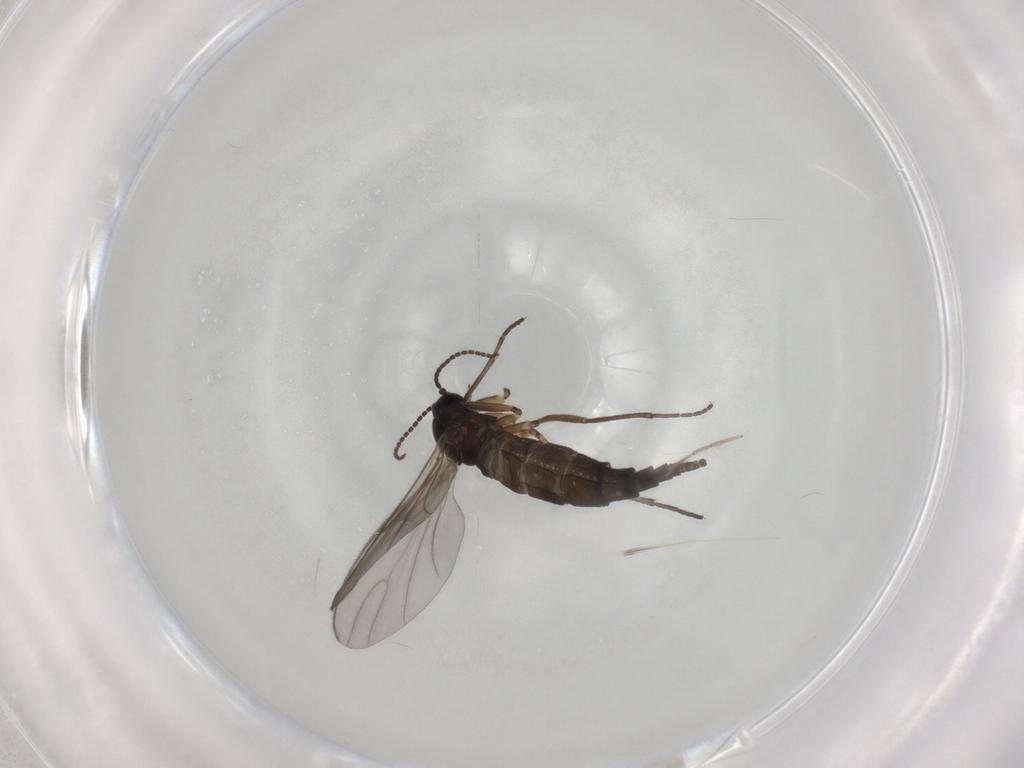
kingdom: Animalia
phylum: Arthropoda
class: Insecta
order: Diptera
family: Sciaridae
